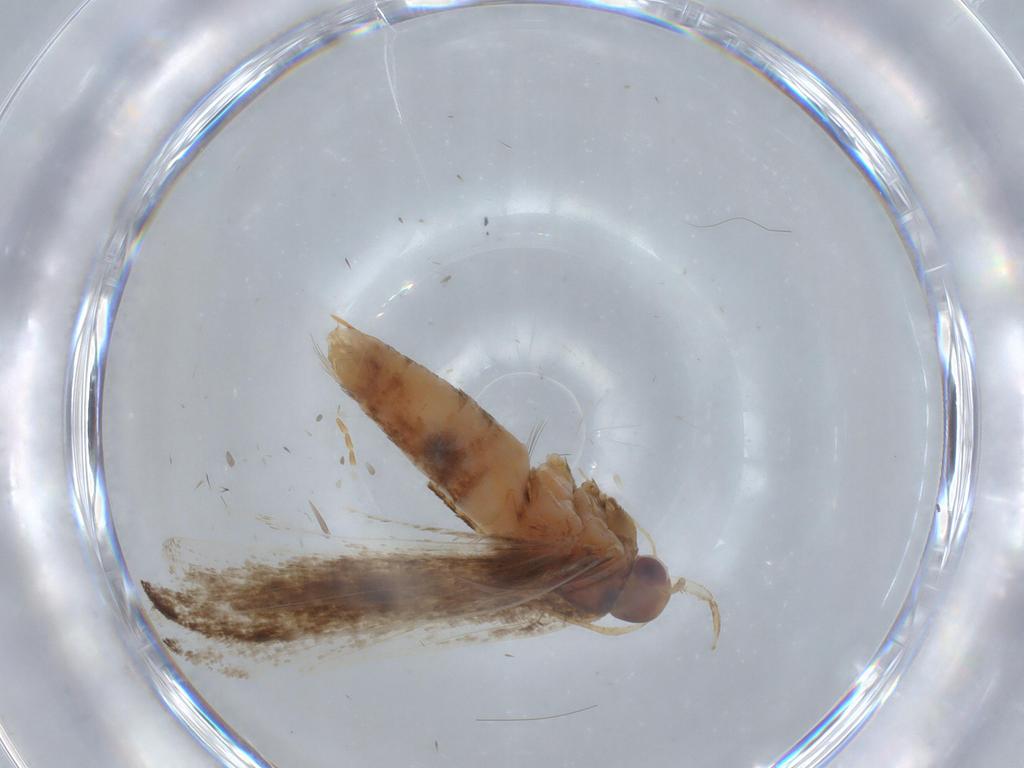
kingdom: Animalia
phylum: Arthropoda
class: Insecta
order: Lepidoptera
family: Gelechiidae
